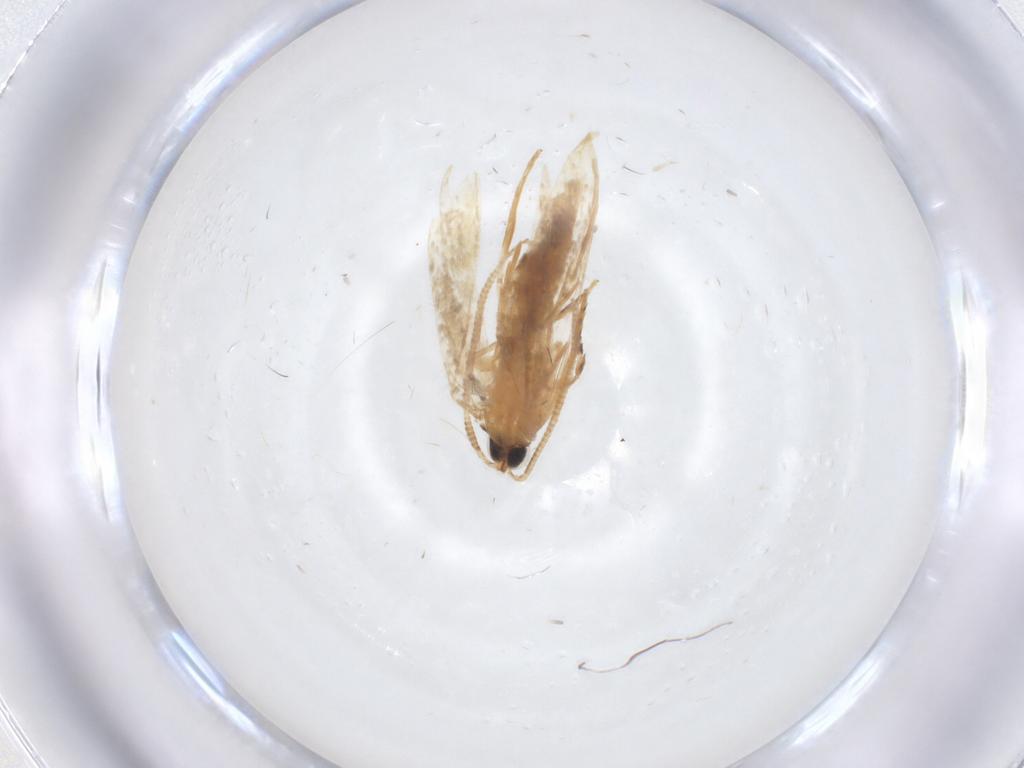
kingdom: Animalia
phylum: Arthropoda
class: Insecta
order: Lepidoptera
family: Tineidae
